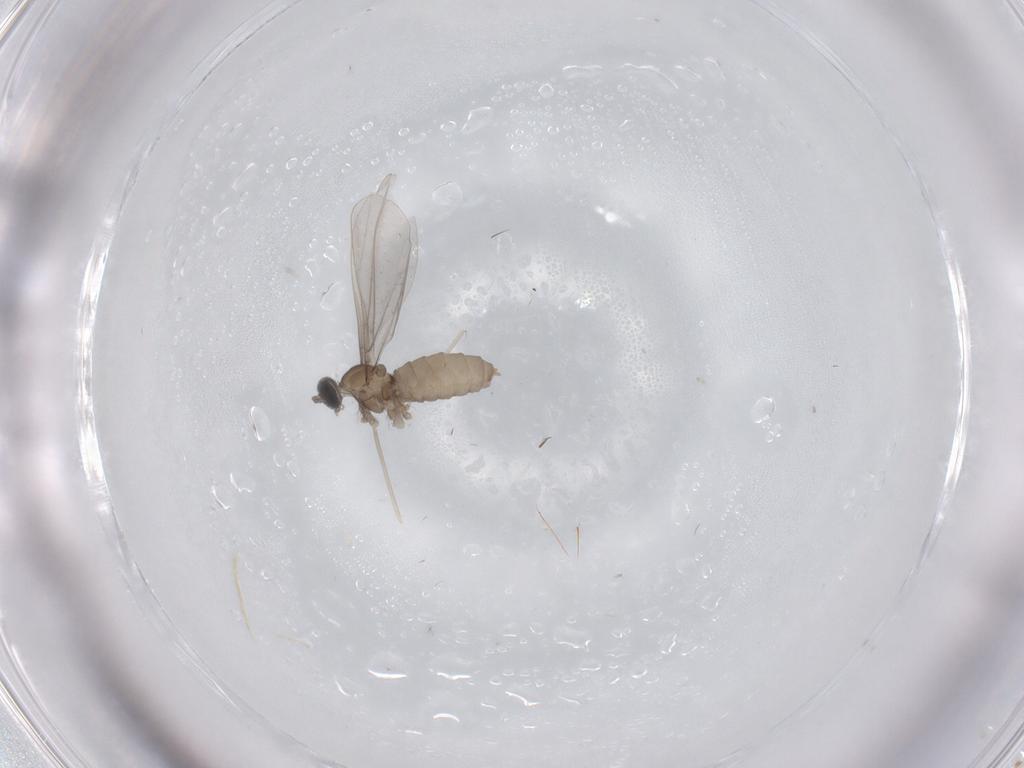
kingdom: Animalia
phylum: Arthropoda
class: Insecta
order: Diptera
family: Cecidomyiidae
